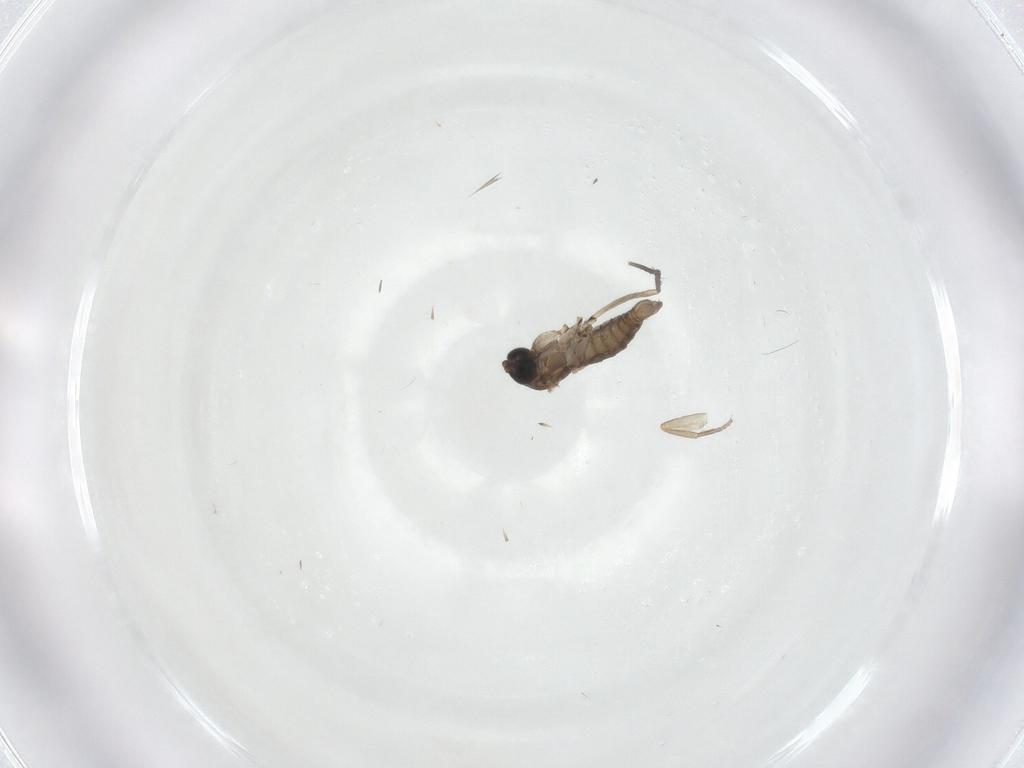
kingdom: Animalia
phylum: Arthropoda
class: Insecta
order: Diptera
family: Sciaridae
